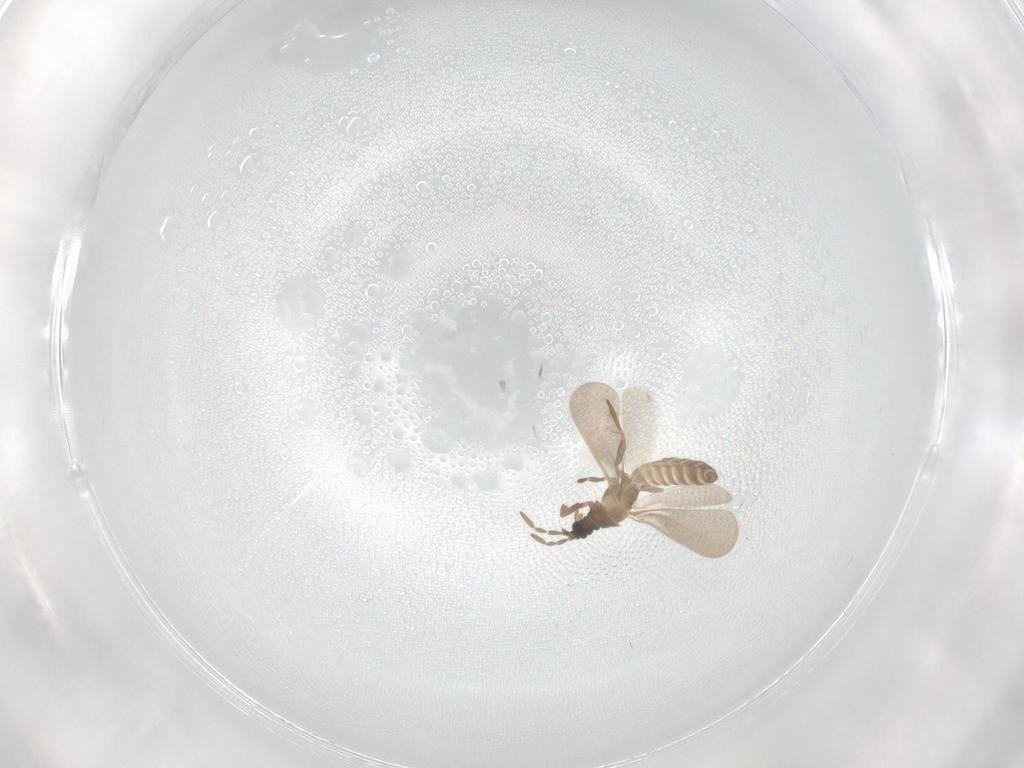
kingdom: Animalia
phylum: Arthropoda
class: Insecta
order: Hemiptera
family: Enicocephalidae
